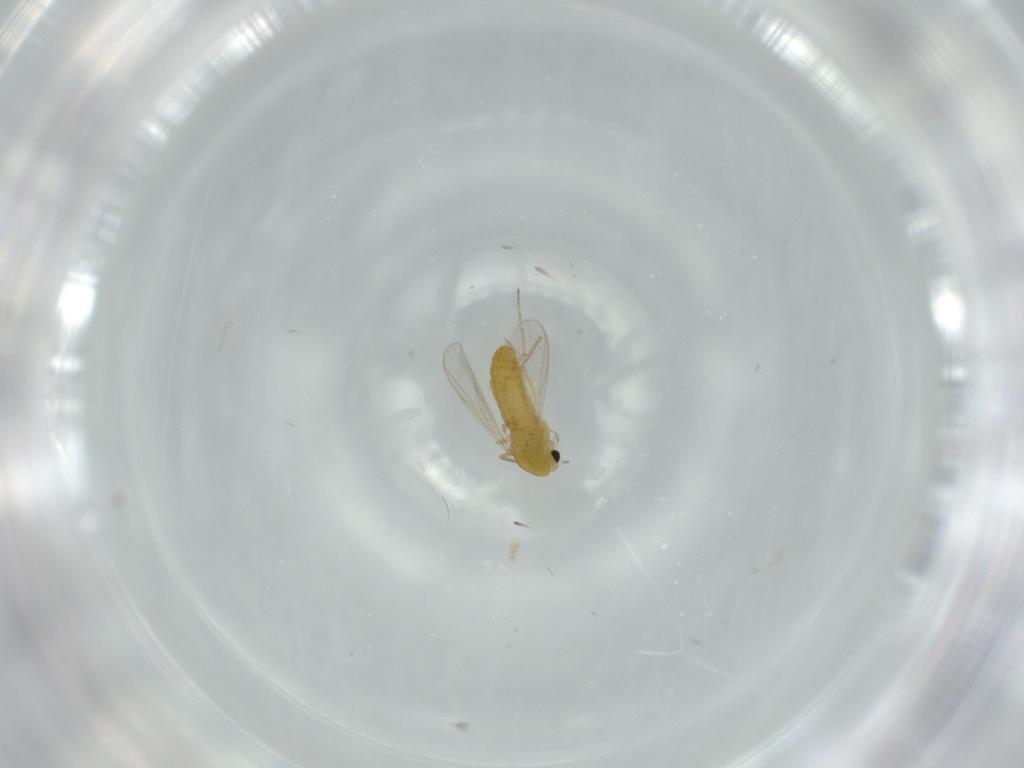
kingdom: Animalia
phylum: Arthropoda
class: Insecta
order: Diptera
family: Chironomidae
